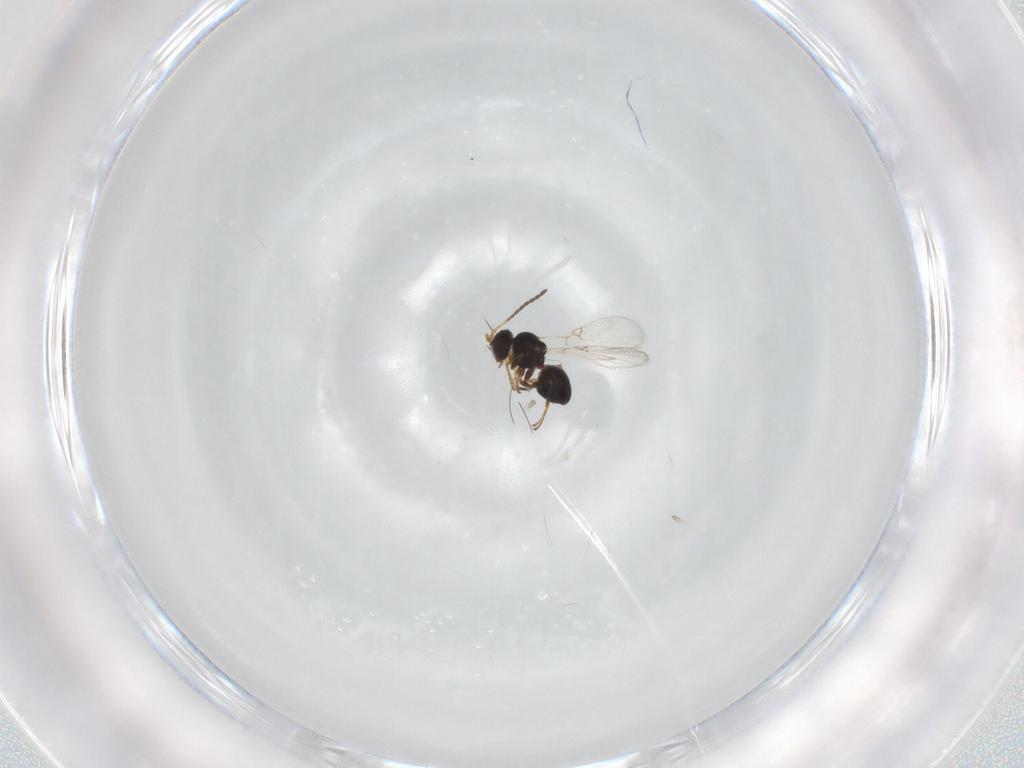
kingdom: Animalia
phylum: Arthropoda
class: Insecta
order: Hymenoptera
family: Figitidae
